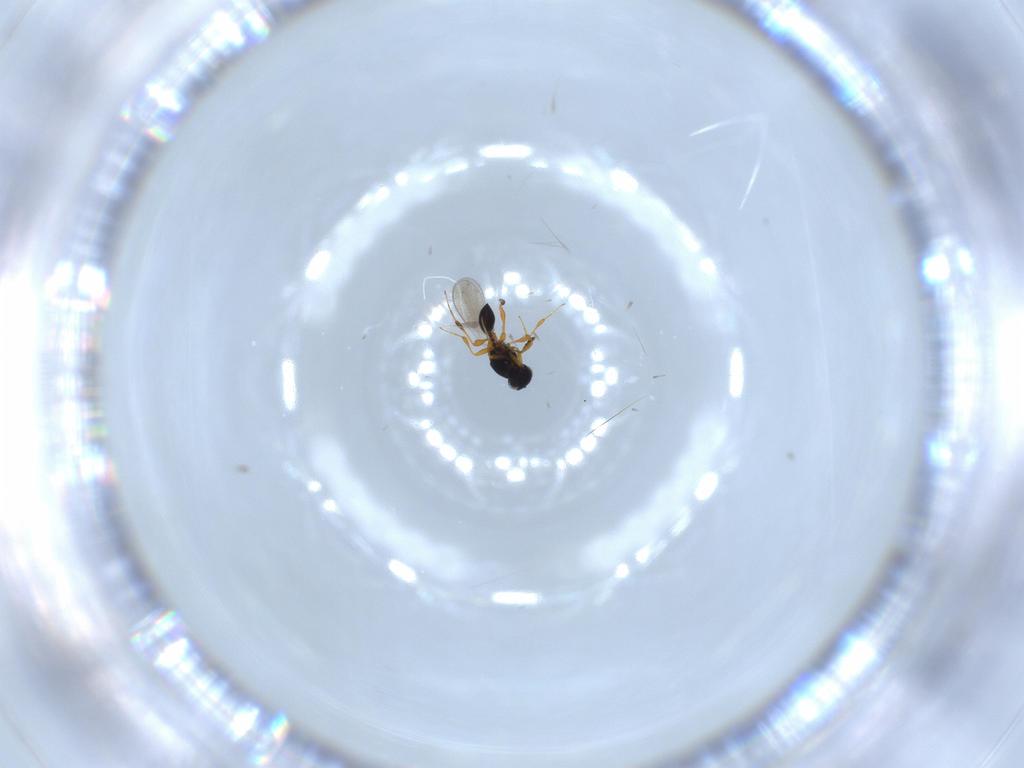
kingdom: Animalia
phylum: Arthropoda
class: Insecta
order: Hymenoptera
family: Platygastridae
